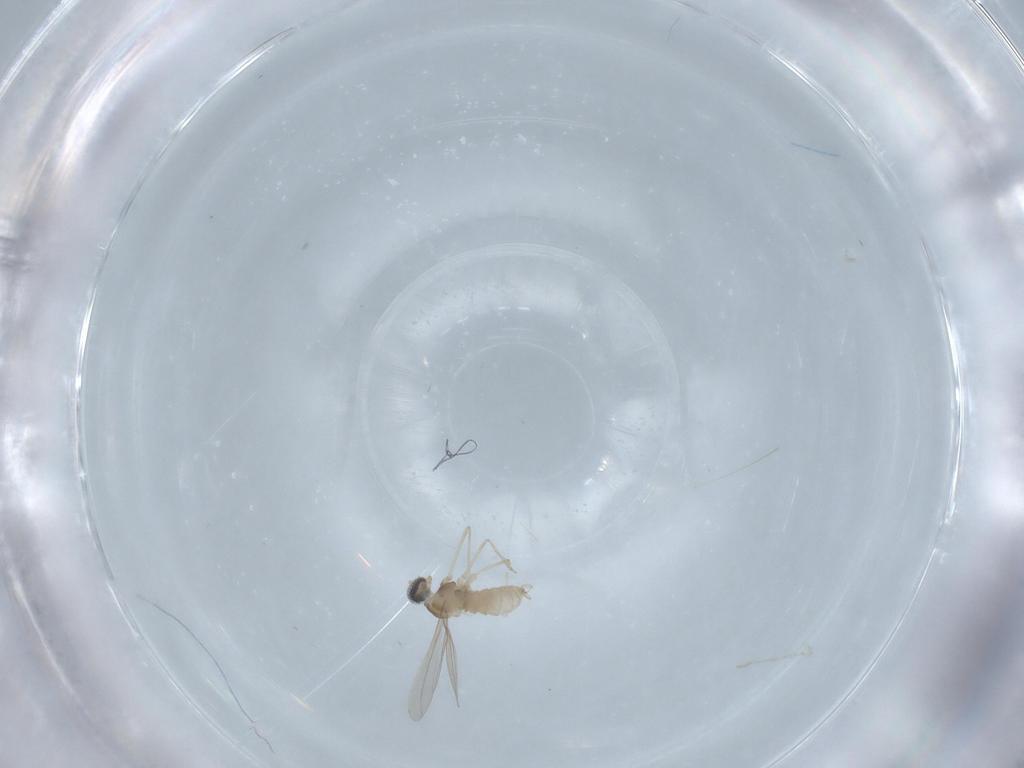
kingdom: Animalia
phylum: Arthropoda
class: Insecta
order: Diptera
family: Cecidomyiidae
